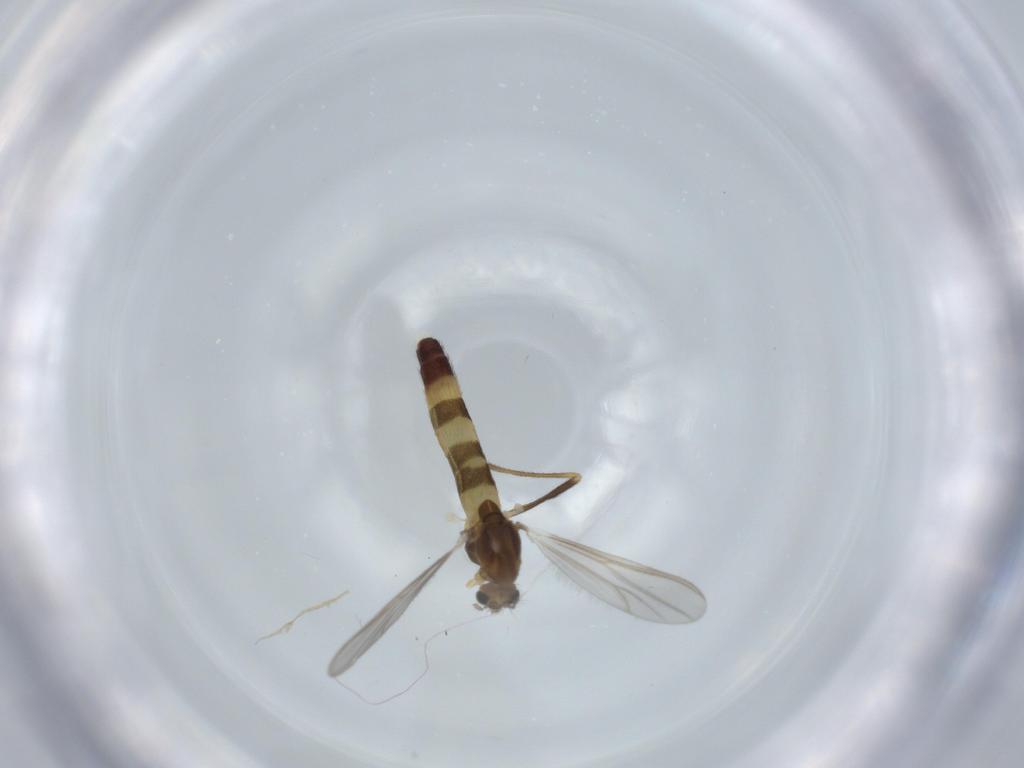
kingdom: Animalia
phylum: Arthropoda
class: Insecta
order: Diptera
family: Chironomidae
